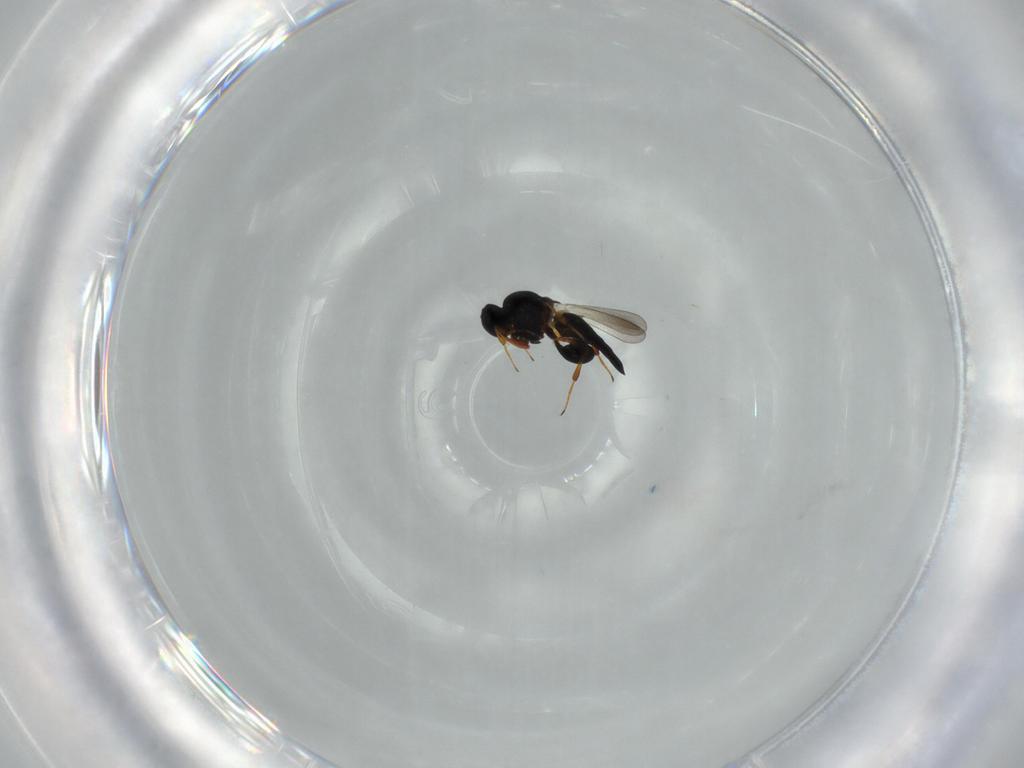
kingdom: Animalia
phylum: Arthropoda
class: Insecta
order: Hymenoptera
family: Platygastridae
